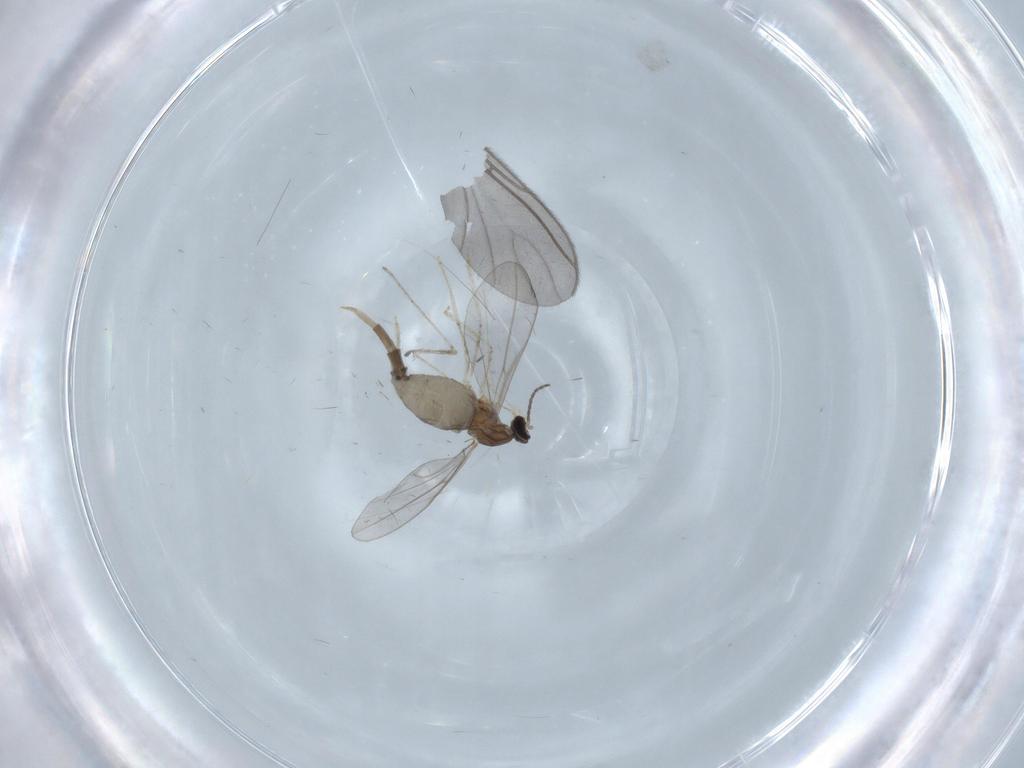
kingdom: Animalia
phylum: Arthropoda
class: Insecta
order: Diptera
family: Cecidomyiidae
